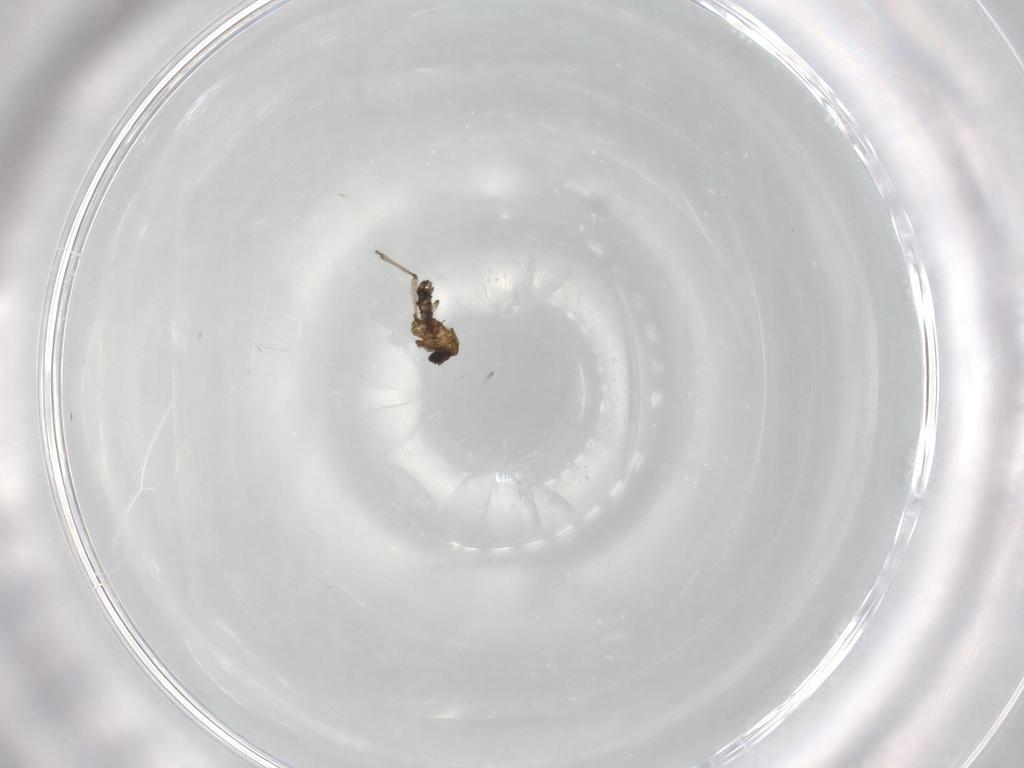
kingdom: Animalia
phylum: Arthropoda
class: Insecta
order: Diptera
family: Sciaridae
